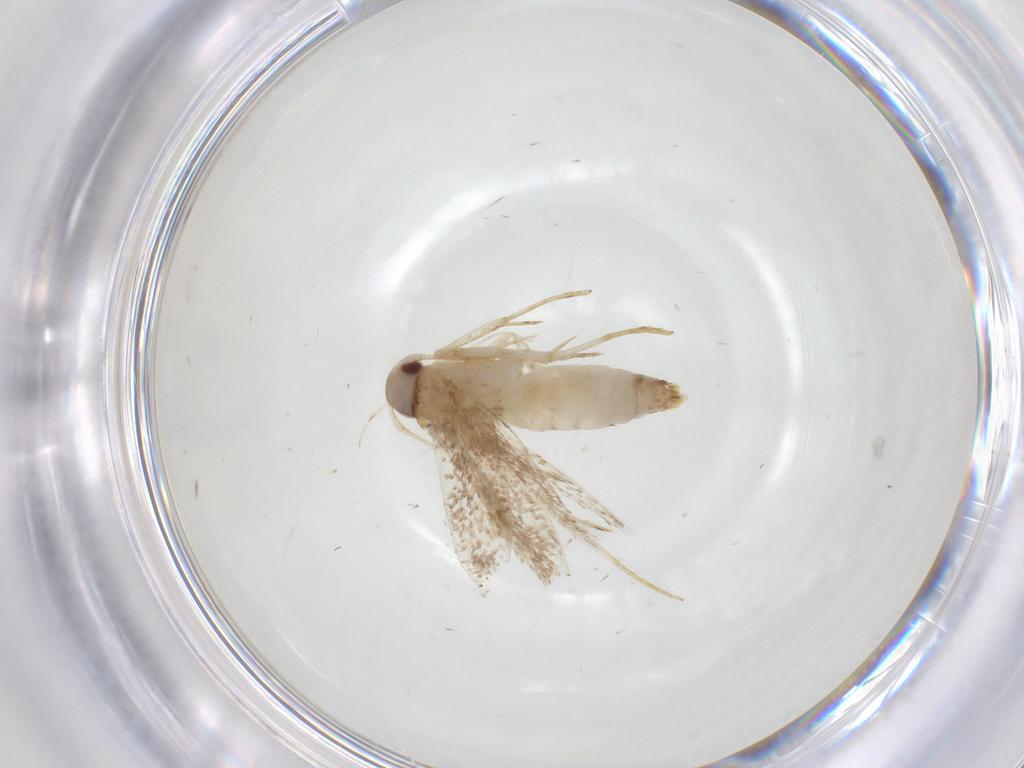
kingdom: Animalia
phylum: Arthropoda
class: Insecta
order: Lepidoptera
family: Cosmopterigidae
